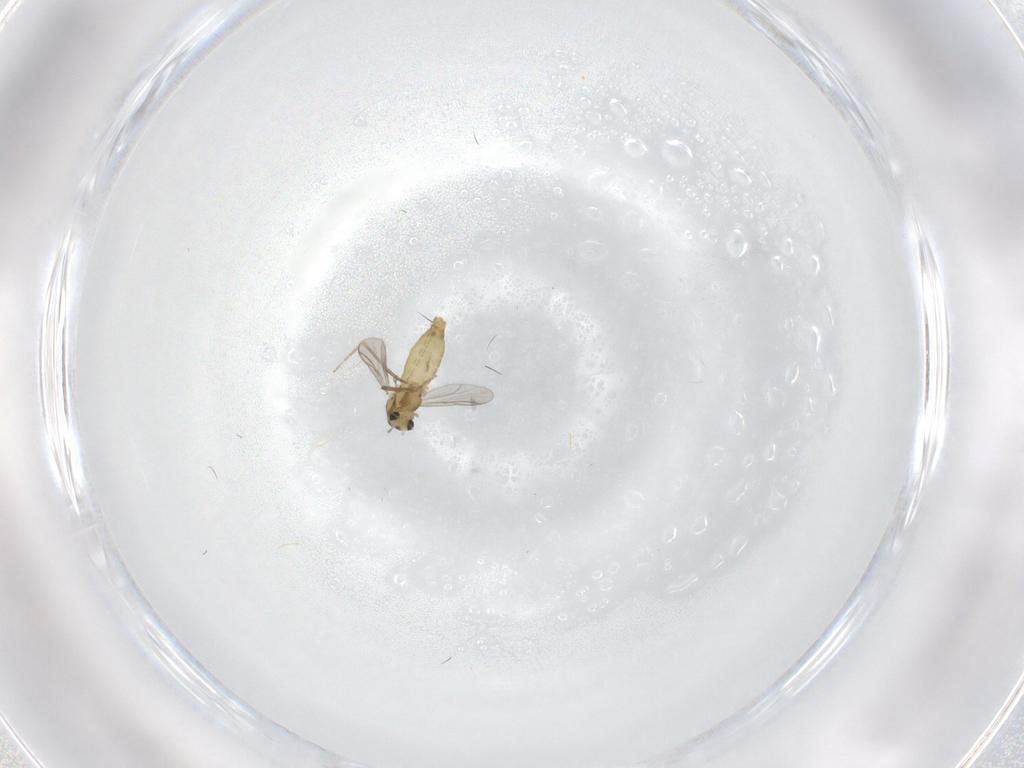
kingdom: Animalia
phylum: Arthropoda
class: Insecta
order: Diptera
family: Chironomidae
